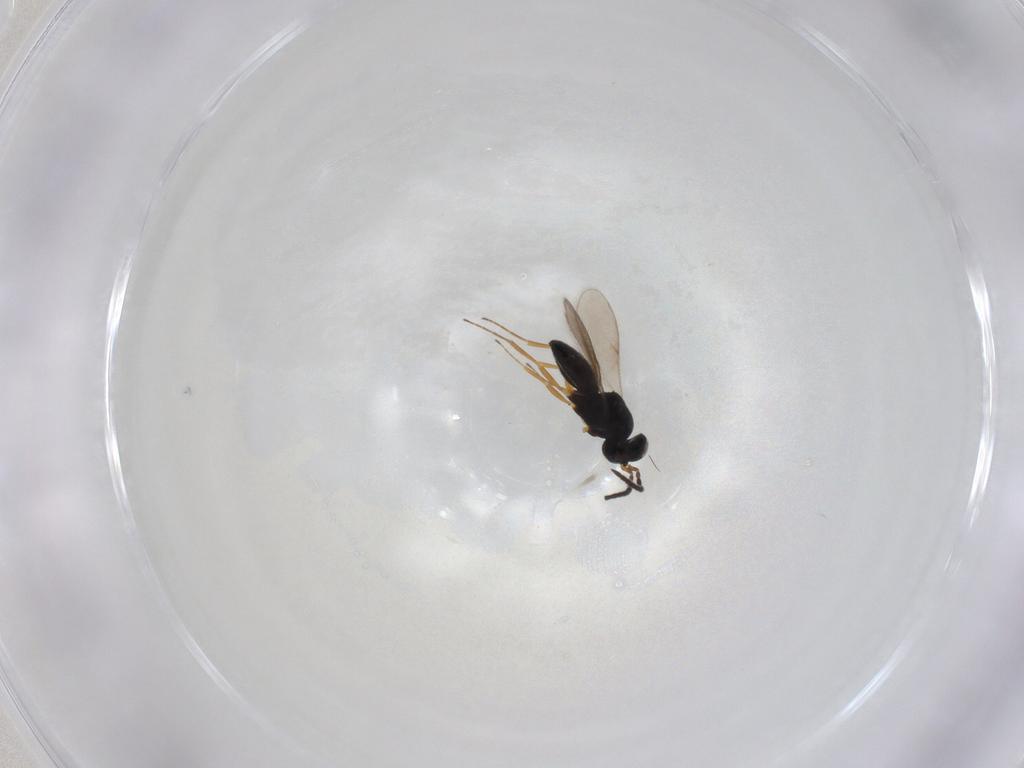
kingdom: Animalia
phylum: Arthropoda
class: Insecta
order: Hymenoptera
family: Scelionidae
